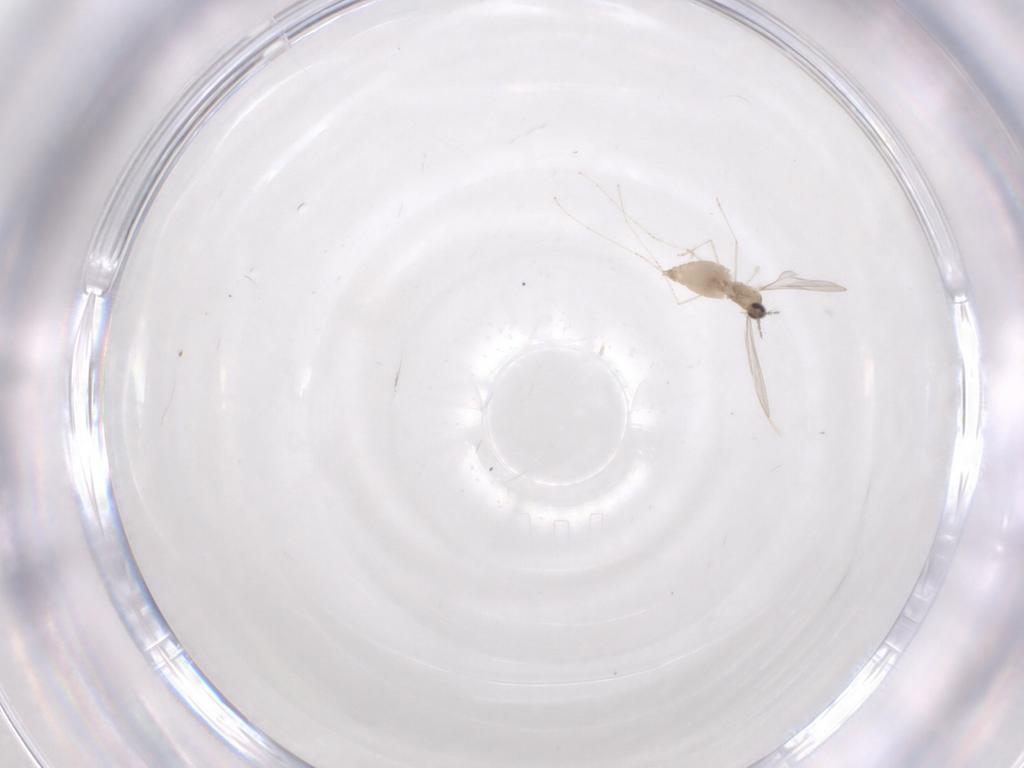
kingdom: Animalia
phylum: Arthropoda
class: Insecta
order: Diptera
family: Cecidomyiidae
